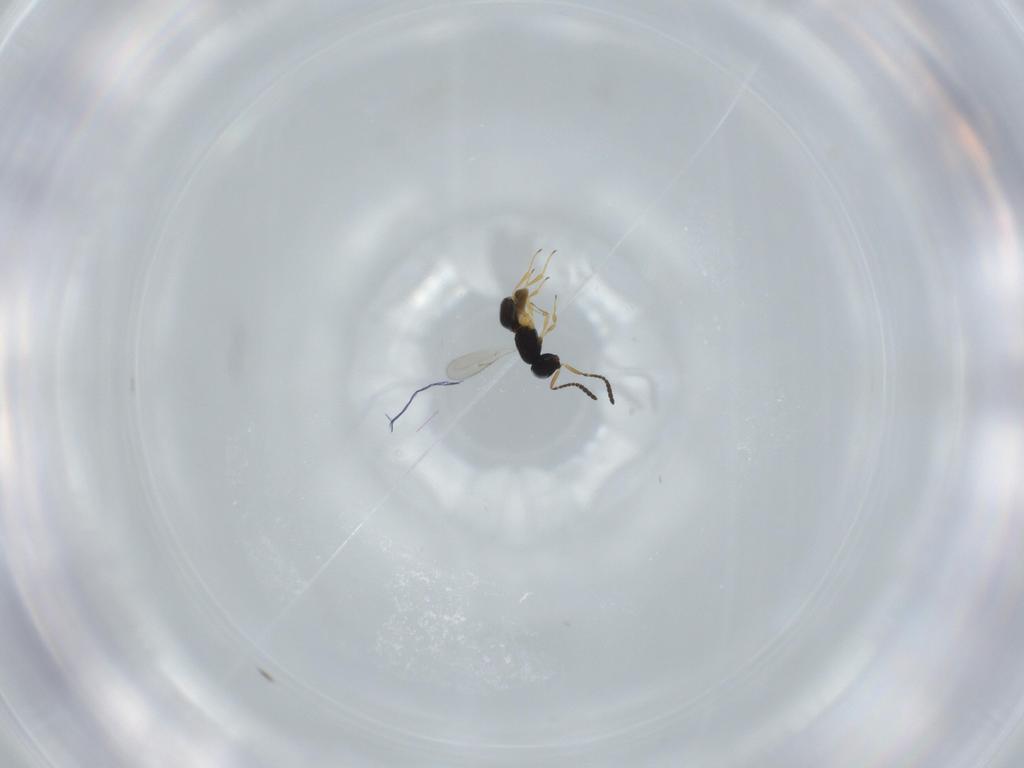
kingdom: Animalia
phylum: Arthropoda
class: Insecta
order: Hymenoptera
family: Scelionidae
